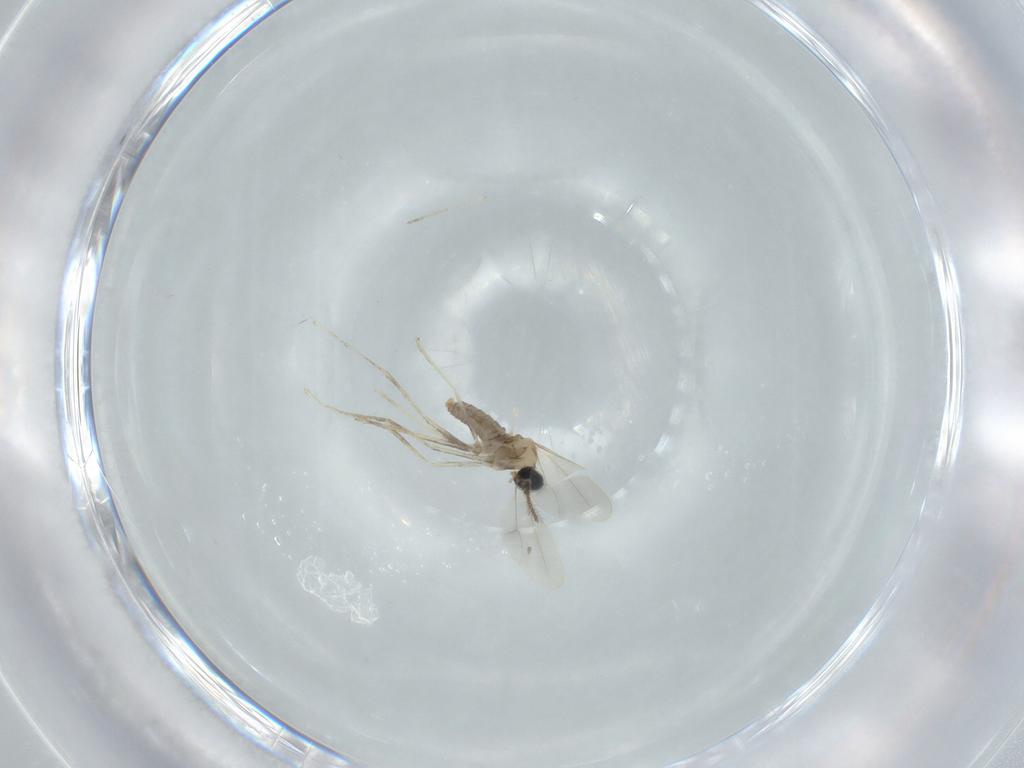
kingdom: Animalia
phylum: Arthropoda
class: Insecta
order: Diptera
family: Cecidomyiidae
